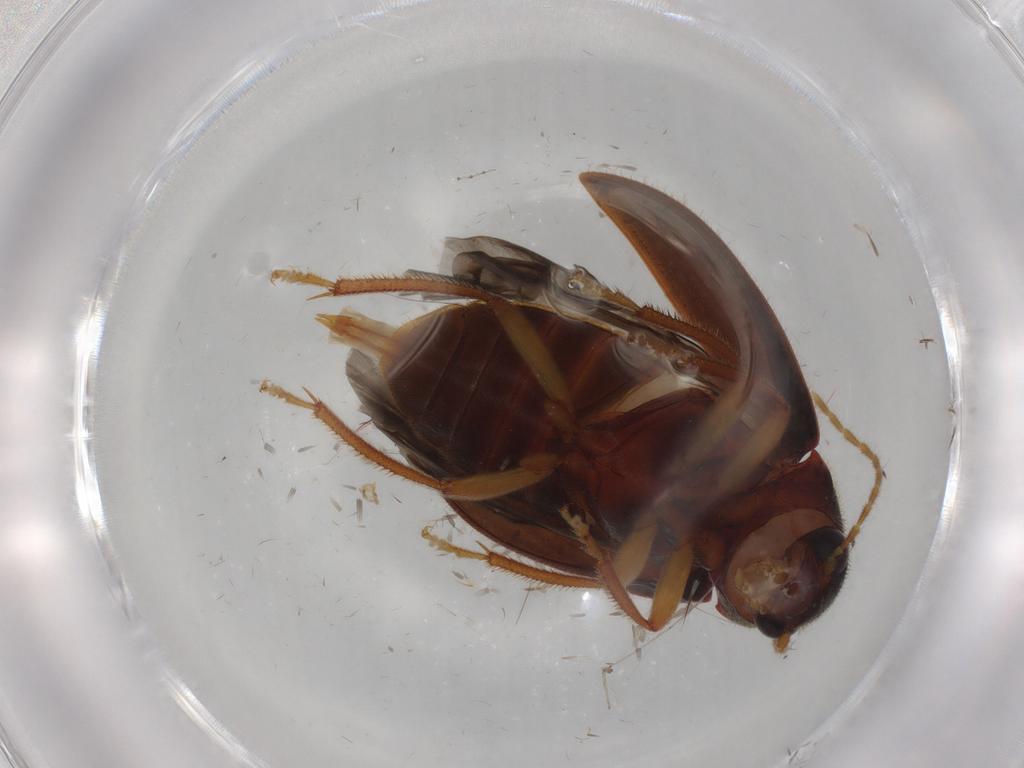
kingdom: Animalia
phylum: Arthropoda
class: Insecta
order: Coleoptera
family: Ptilodactylidae
